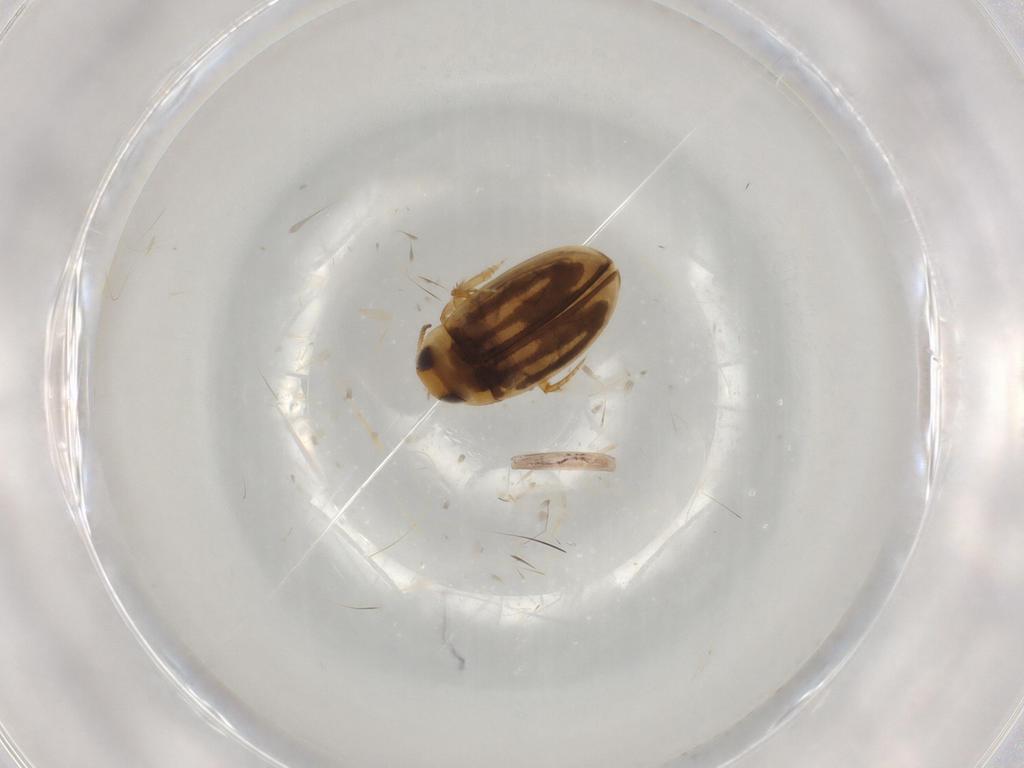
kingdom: Animalia
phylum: Arthropoda
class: Insecta
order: Coleoptera
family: Dytiscidae
